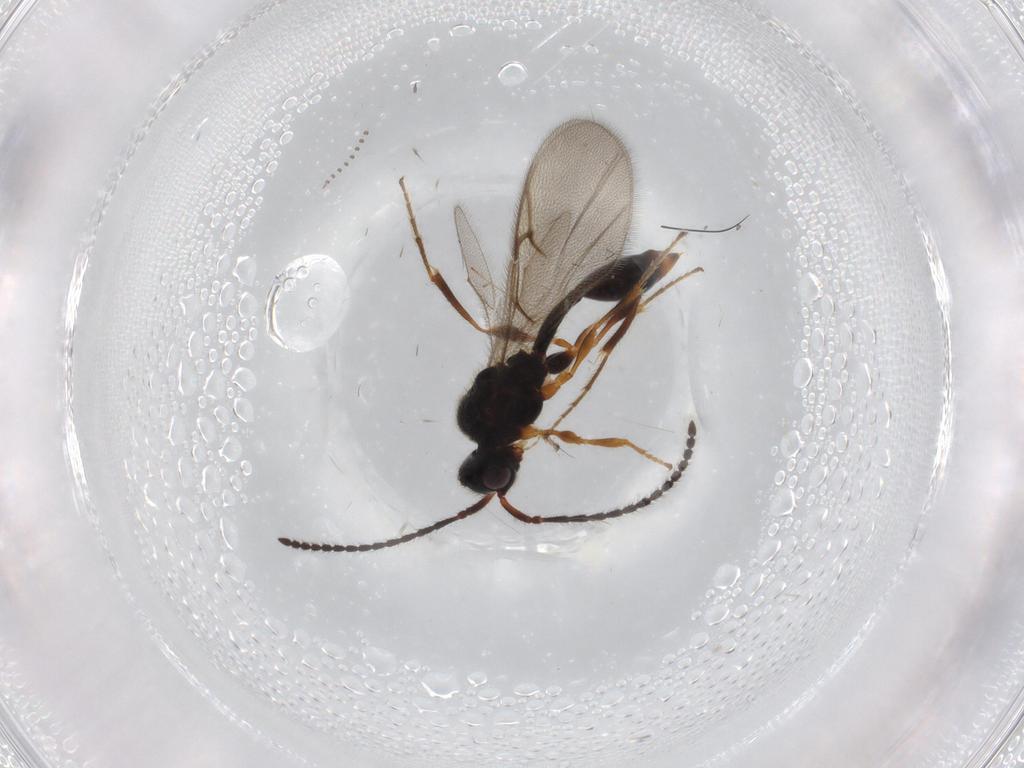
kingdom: Animalia
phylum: Arthropoda
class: Insecta
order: Hymenoptera
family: Diapriidae
